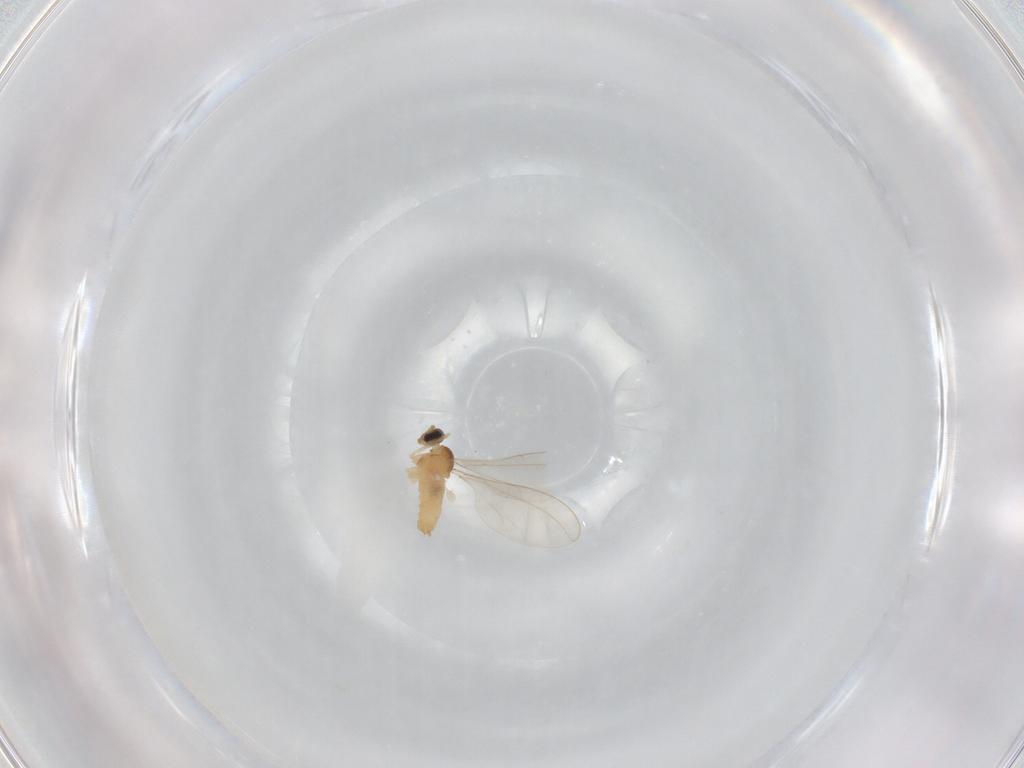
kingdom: Animalia
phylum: Arthropoda
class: Insecta
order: Diptera
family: Cecidomyiidae
